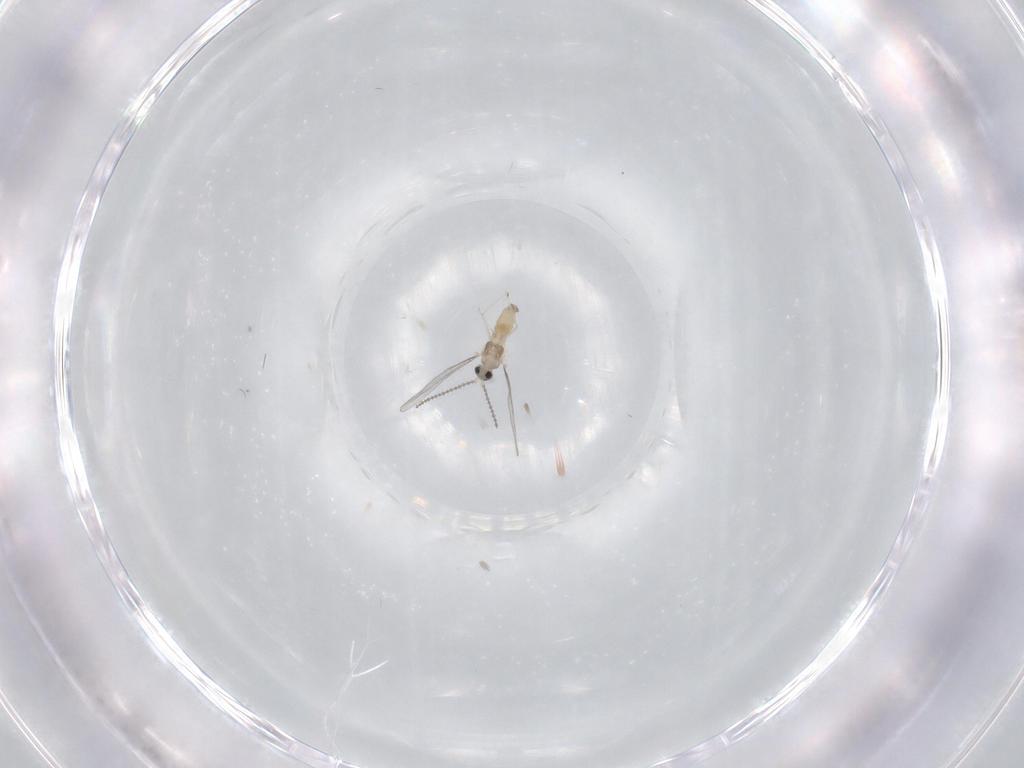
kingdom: Animalia
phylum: Arthropoda
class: Insecta
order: Diptera
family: Cecidomyiidae
